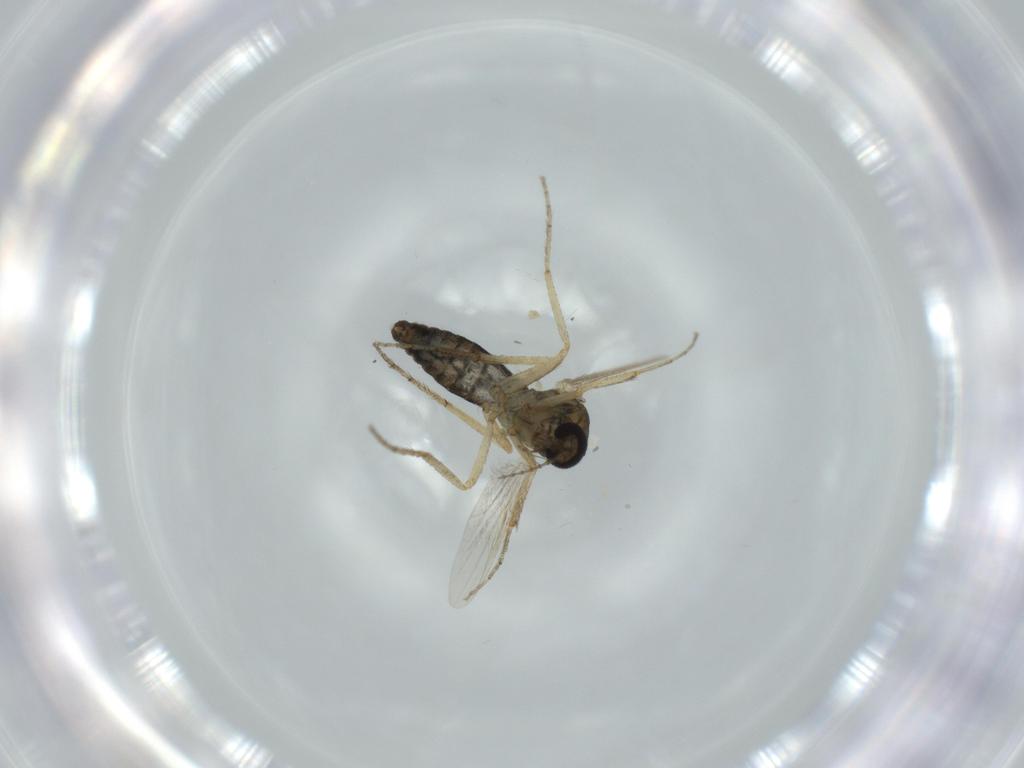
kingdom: Animalia
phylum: Arthropoda
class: Insecta
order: Diptera
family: Ceratopogonidae
